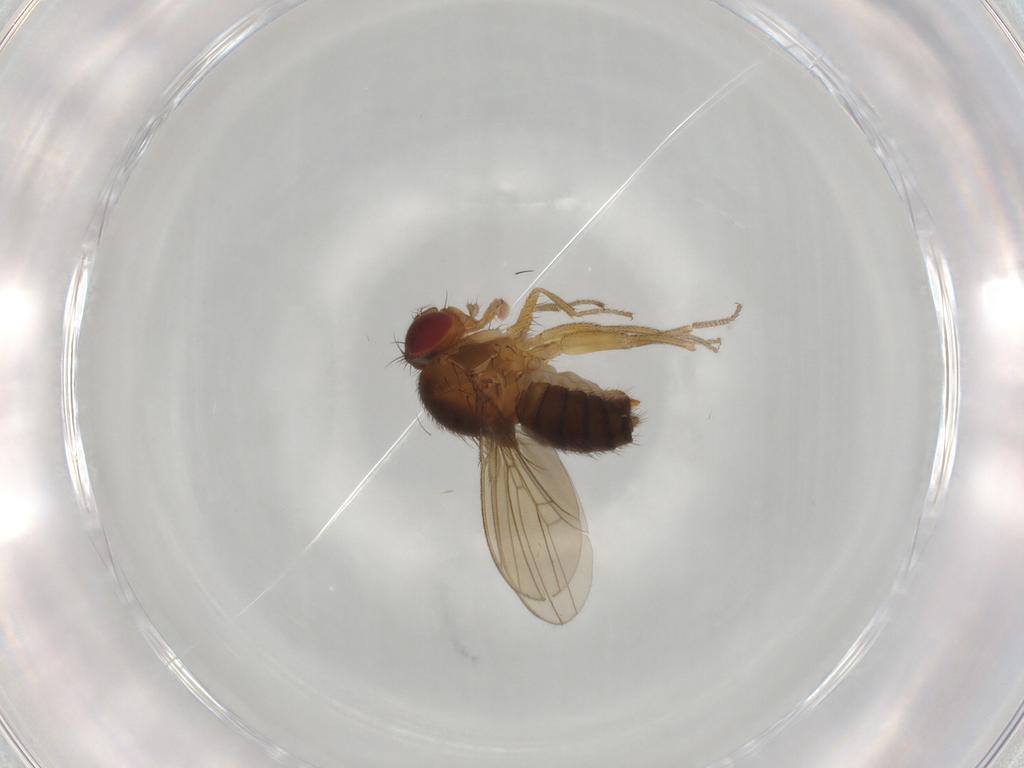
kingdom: Animalia
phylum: Arthropoda
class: Insecta
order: Diptera
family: Drosophilidae
